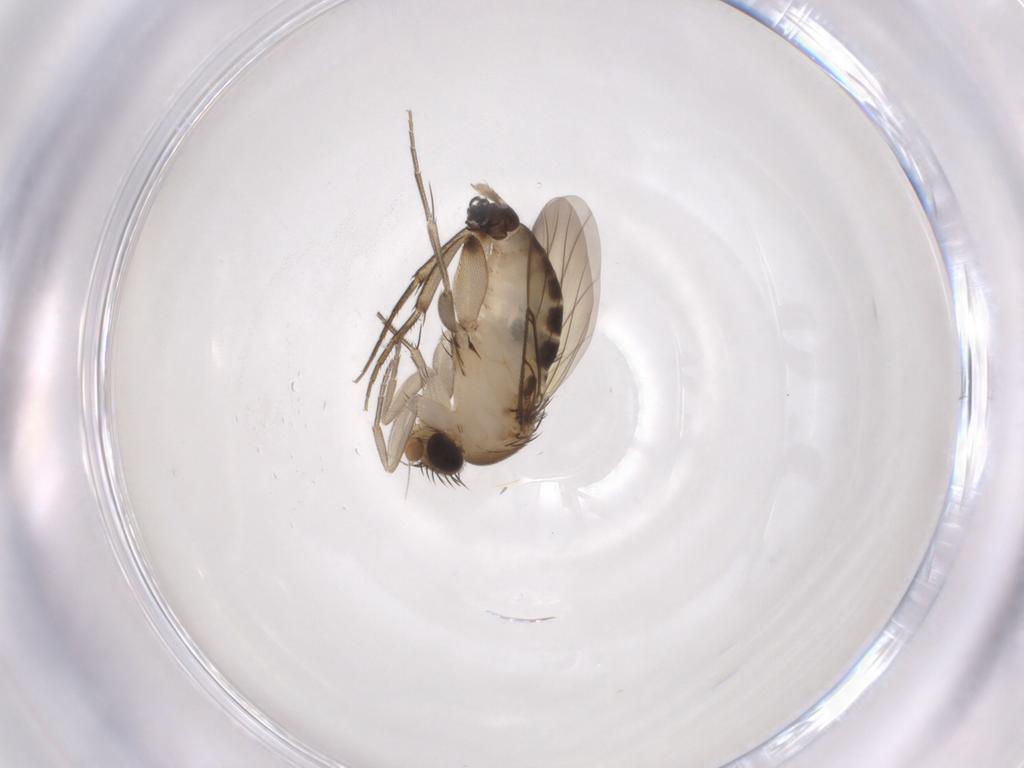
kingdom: Animalia
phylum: Arthropoda
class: Insecta
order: Diptera
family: Phoridae
